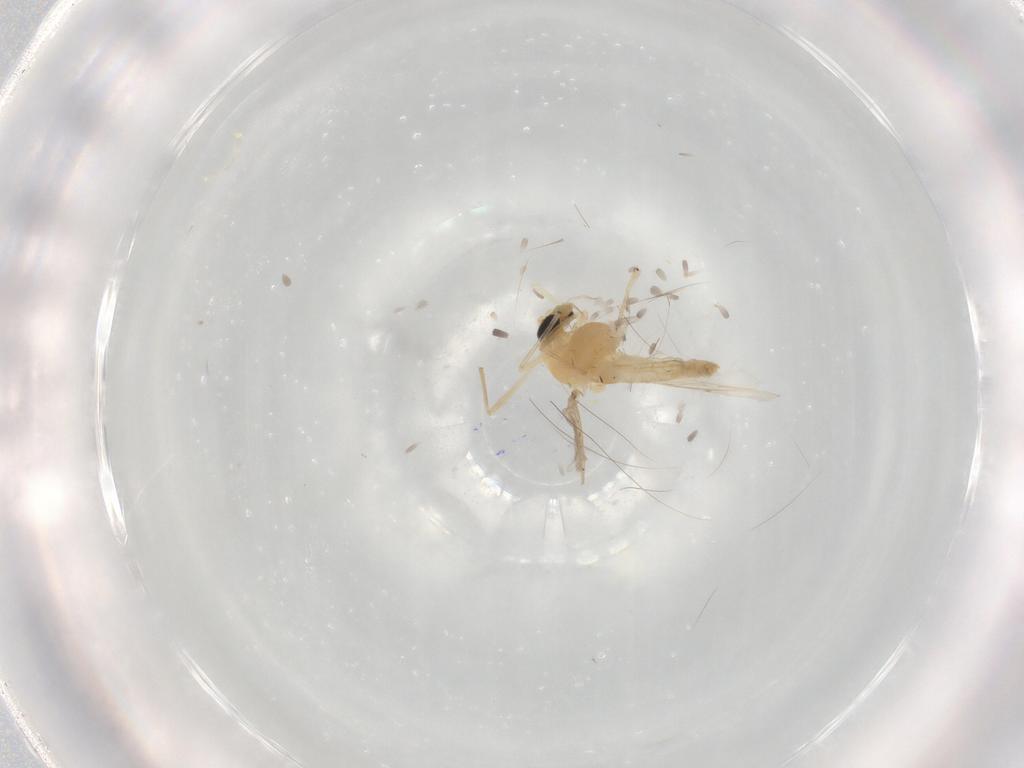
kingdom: Animalia
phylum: Arthropoda
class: Insecta
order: Diptera
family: Chironomidae
